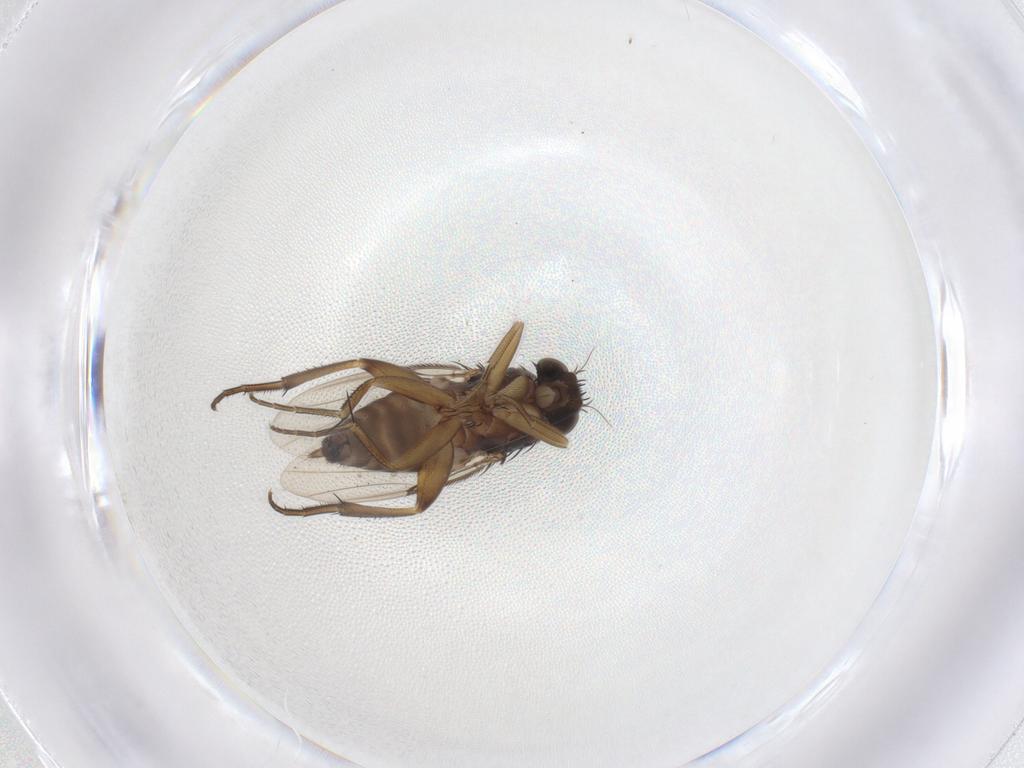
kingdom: Animalia
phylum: Arthropoda
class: Insecta
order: Diptera
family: Phoridae
